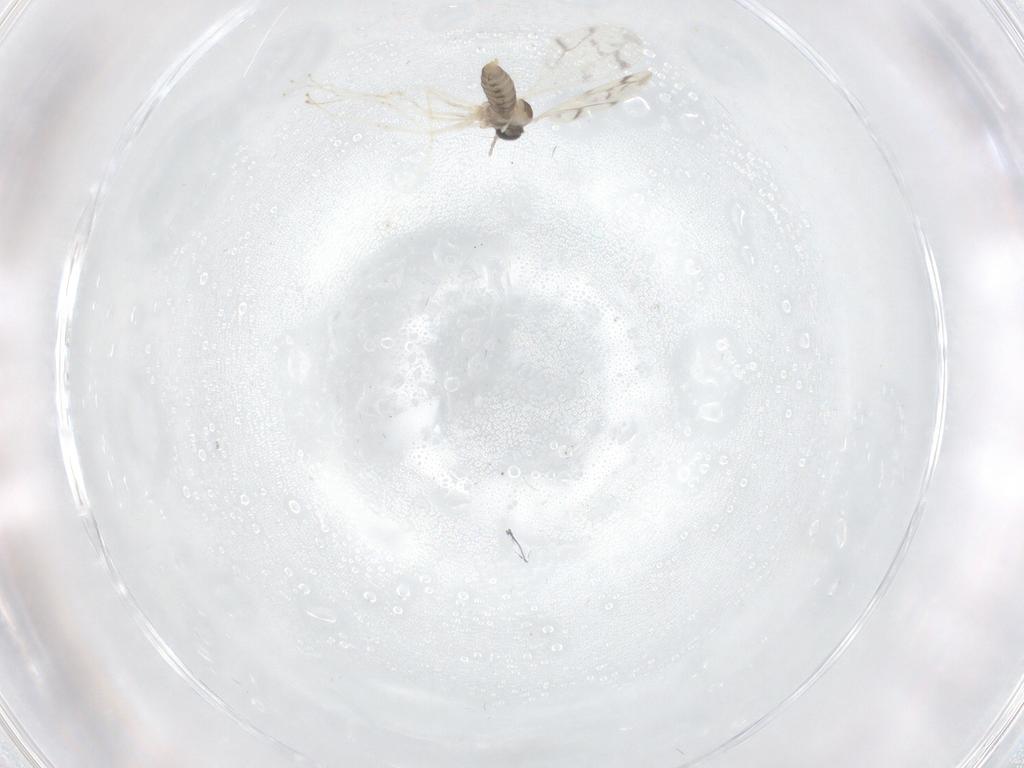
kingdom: Animalia
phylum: Arthropoda
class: Insecta
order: Diptera
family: Cecidomyiidae
